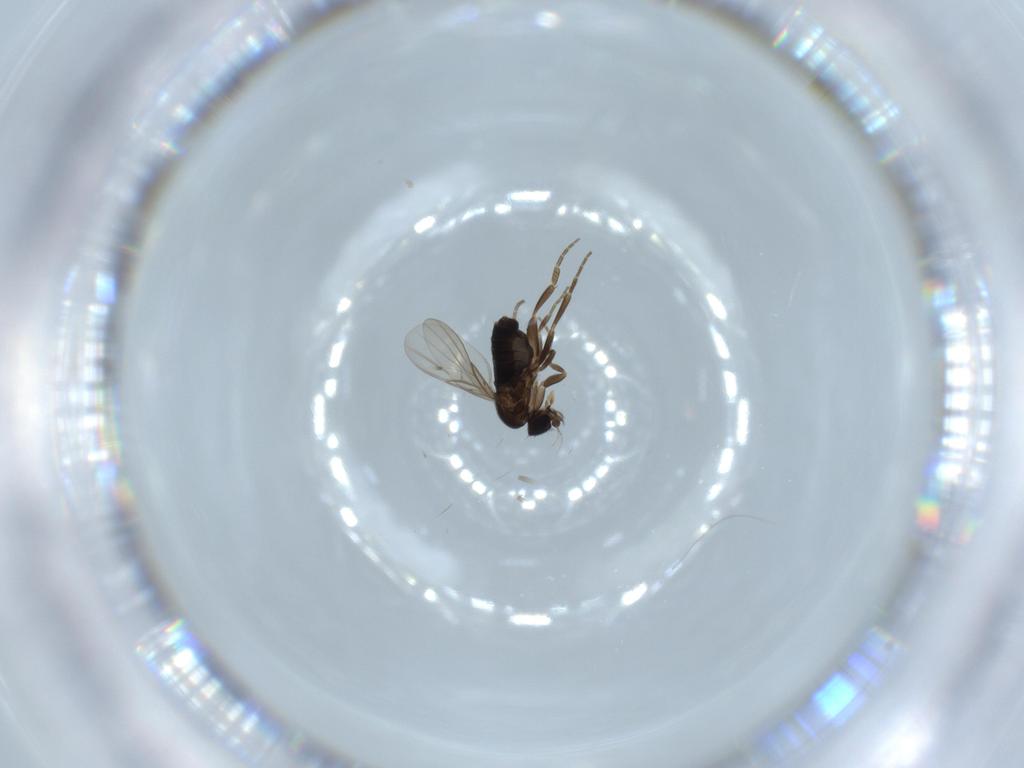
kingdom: Animalia
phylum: Arthropoda
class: Insecta
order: Diptera
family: Phoridae
